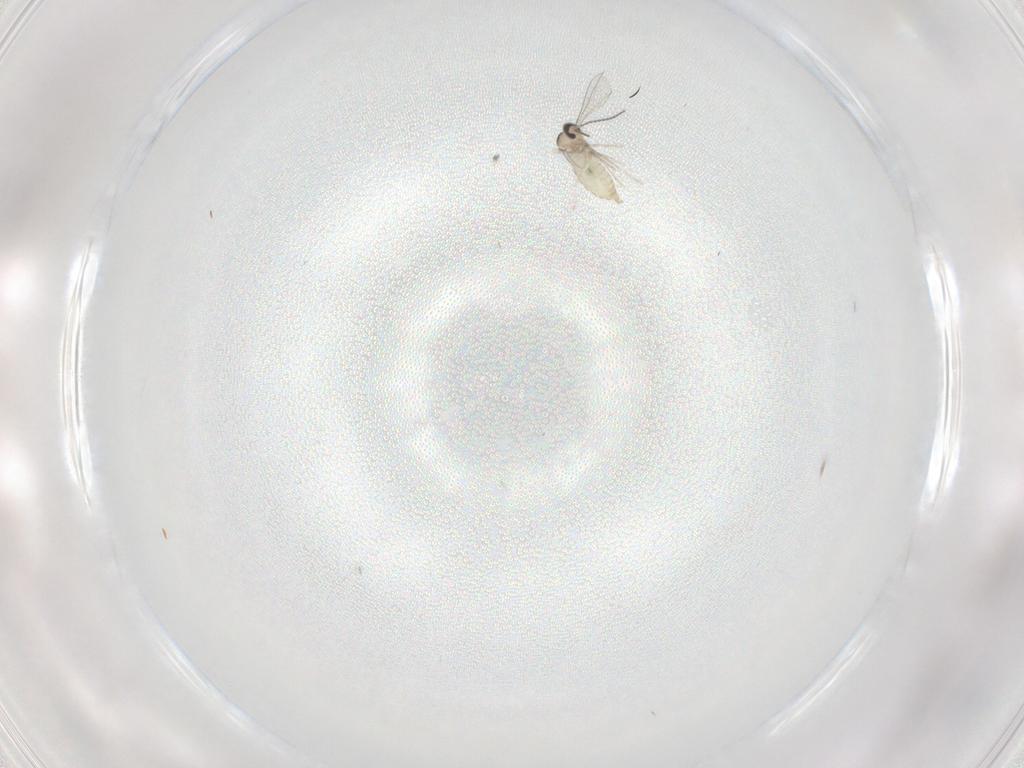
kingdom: Animalia
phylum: Arthropoda
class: Insecta
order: Diptera
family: Cecidomyiidae
